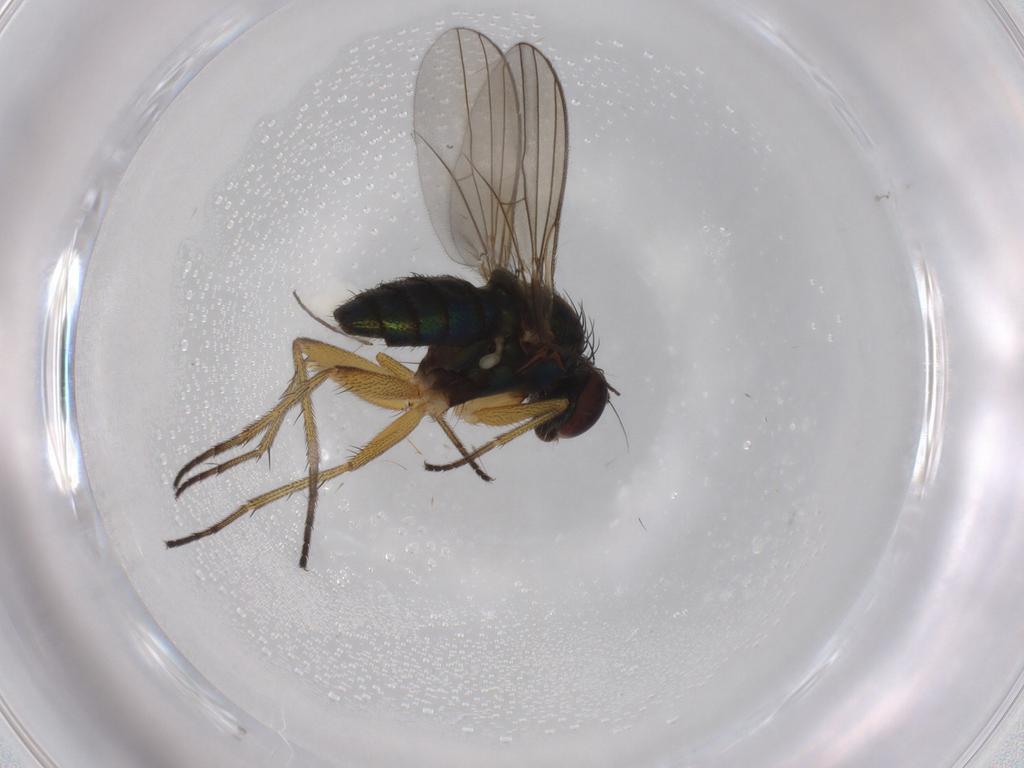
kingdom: Animalia
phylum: Arthropoda
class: Insecta
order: Diptera
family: Chironomidae
